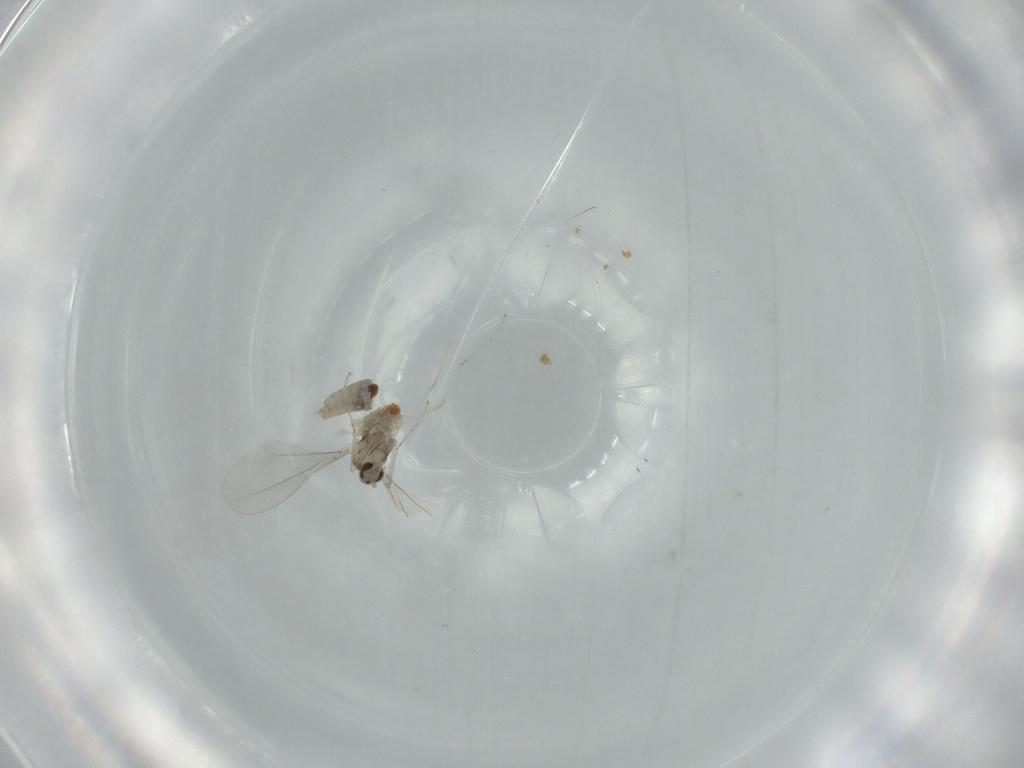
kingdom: Animalia
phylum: Arthropoda
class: Insecta
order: Diptera
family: Cecidomyiidae
